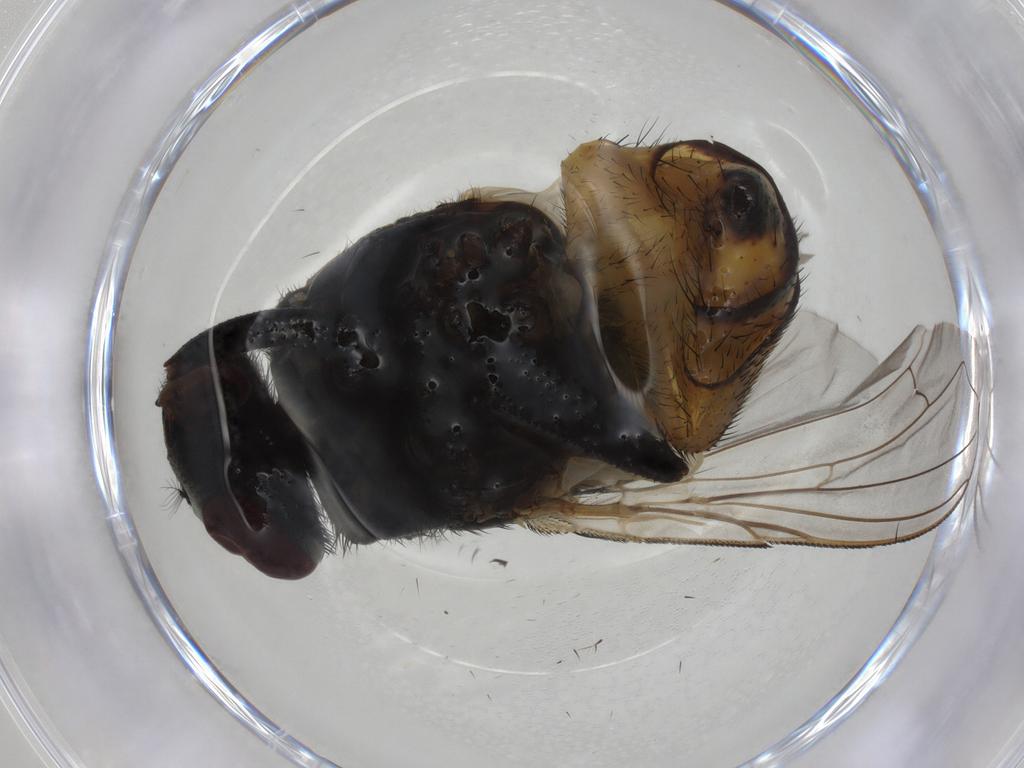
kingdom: Animalia
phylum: Arthropoda
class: Insecta
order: Diptera
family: Muscidae
